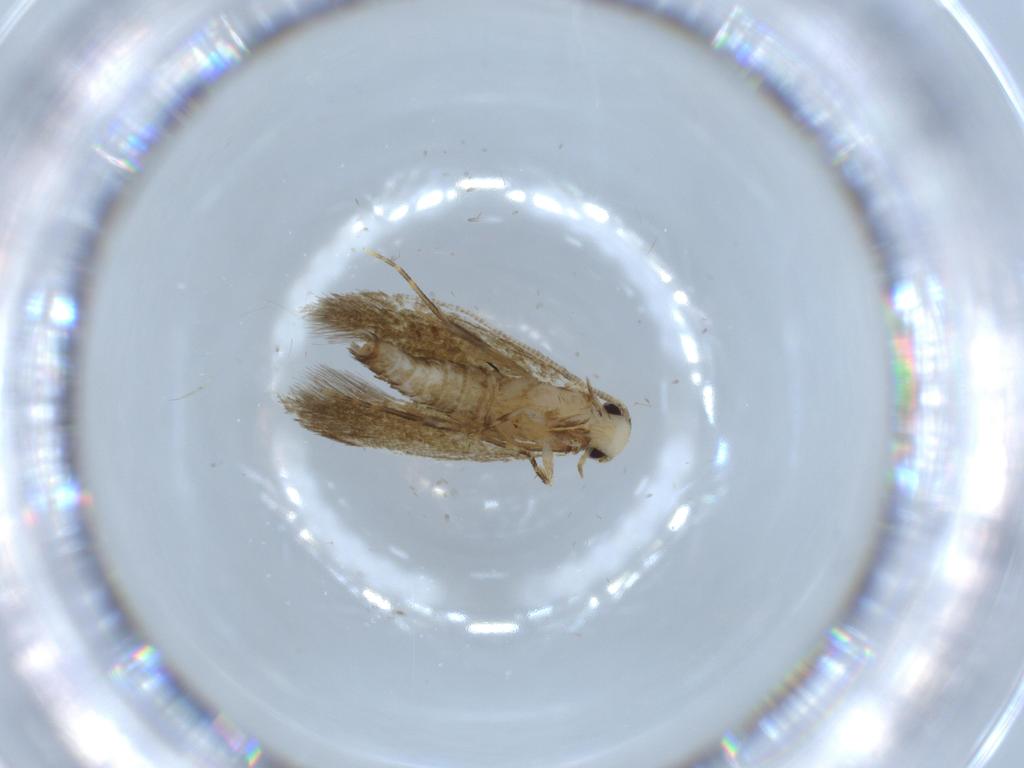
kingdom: Animalia
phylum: Arthropoda
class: Insecta
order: Lepidoptera
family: Tineidae
